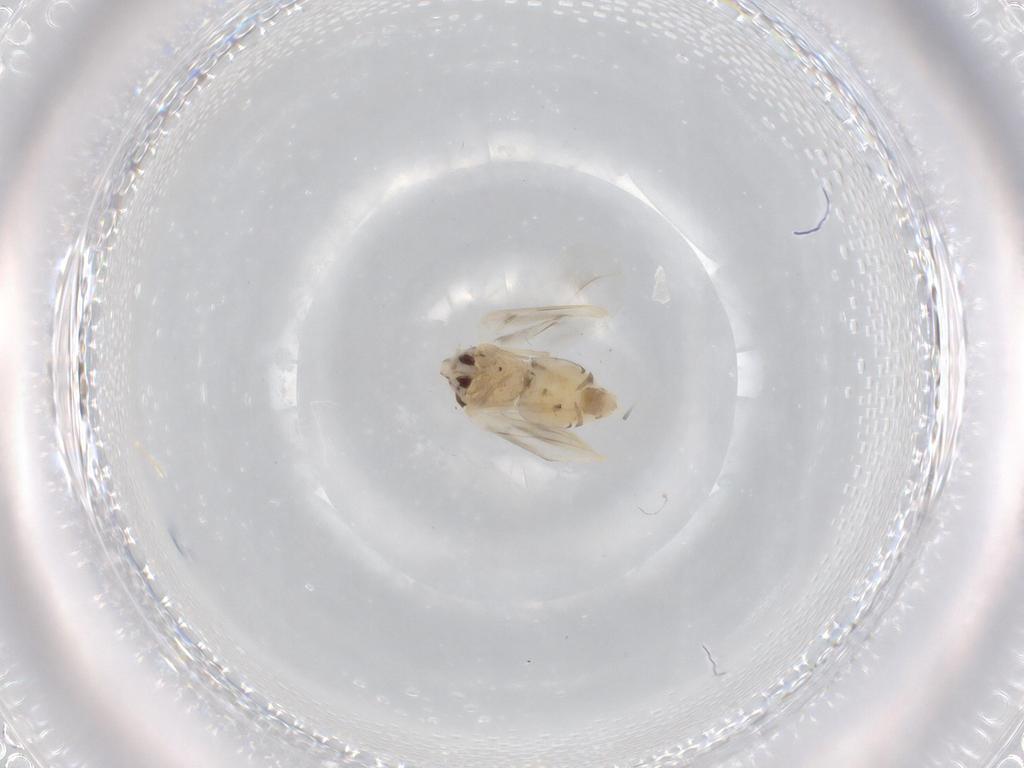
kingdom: Animalia
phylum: Arthropoda
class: Insecta
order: Hemiptera
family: Aleyrodidae
